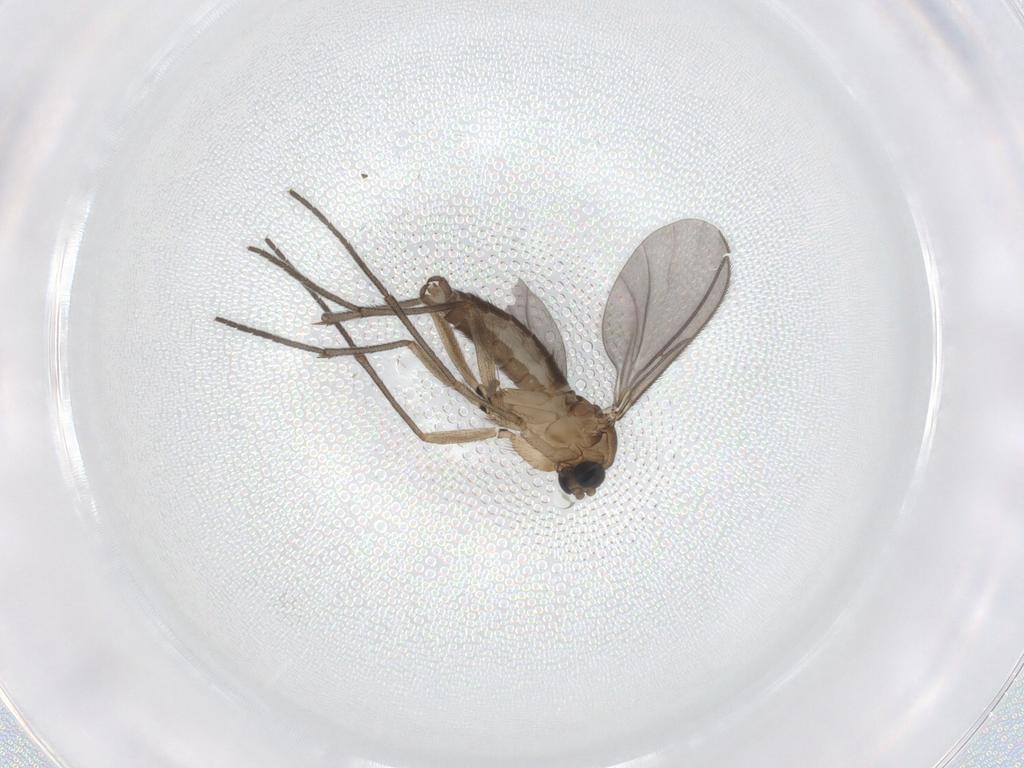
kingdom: Animalia
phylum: Arthropoda
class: Insecta
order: Diptera
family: Sciaridae
